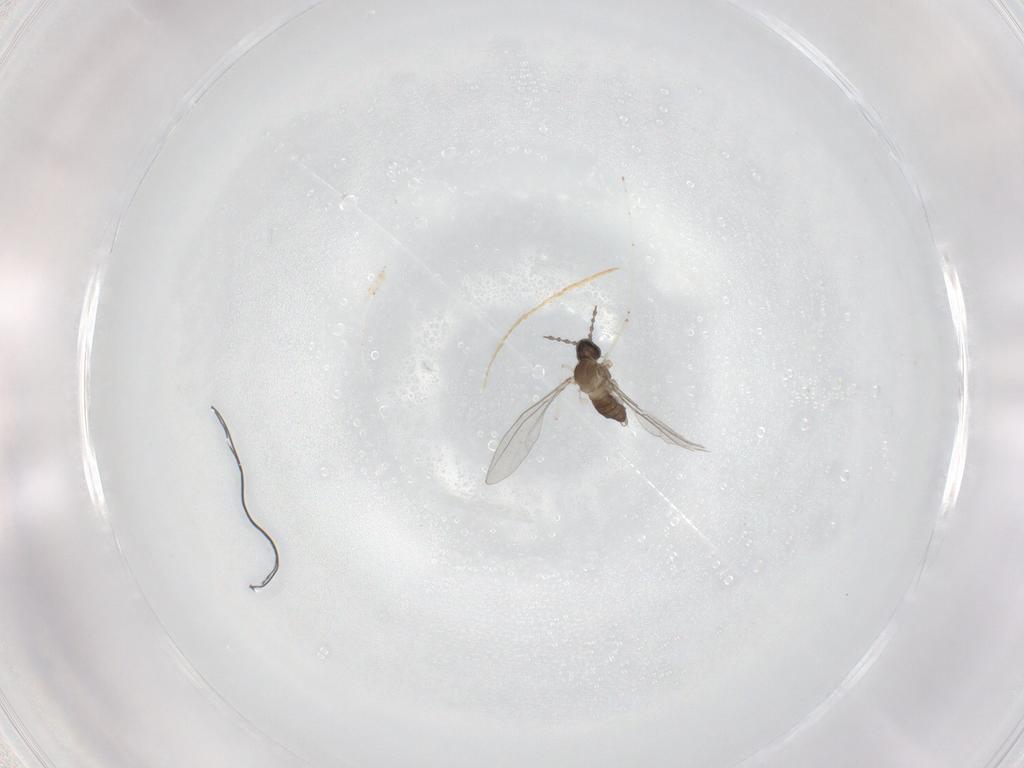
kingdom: Animalia
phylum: Arthropoda
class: Insecta
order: Diptera
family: Cecidomyiidae
